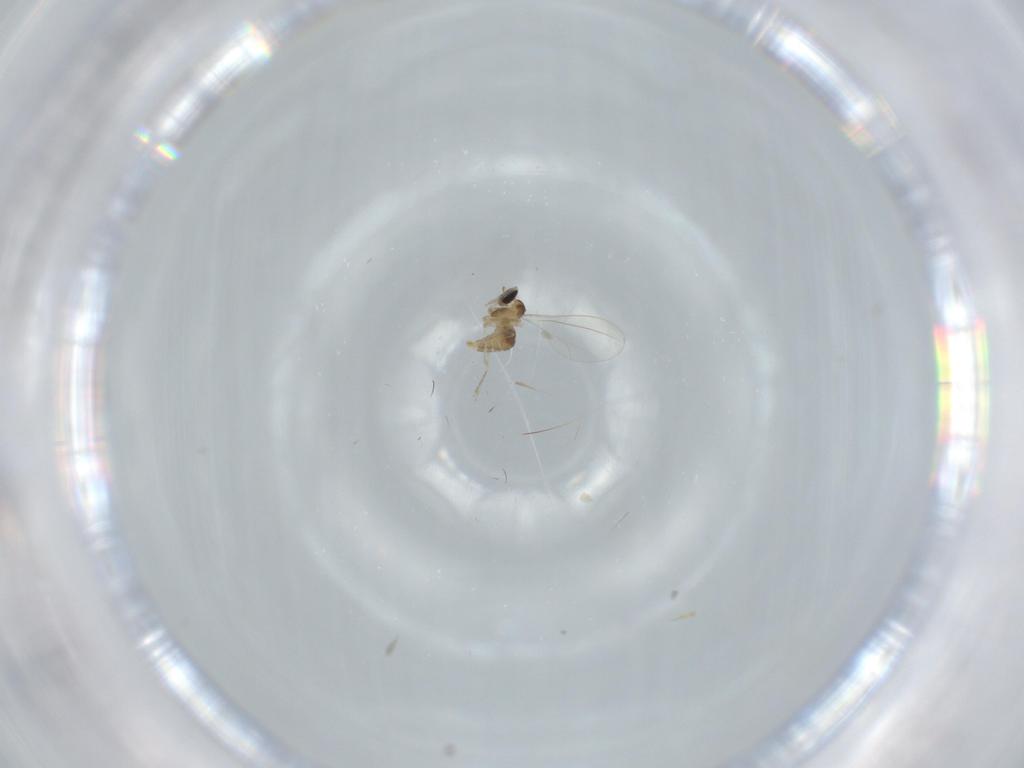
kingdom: Animalia
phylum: Arthropoda
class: Insecta
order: Diptera
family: Cecidomyiidae
